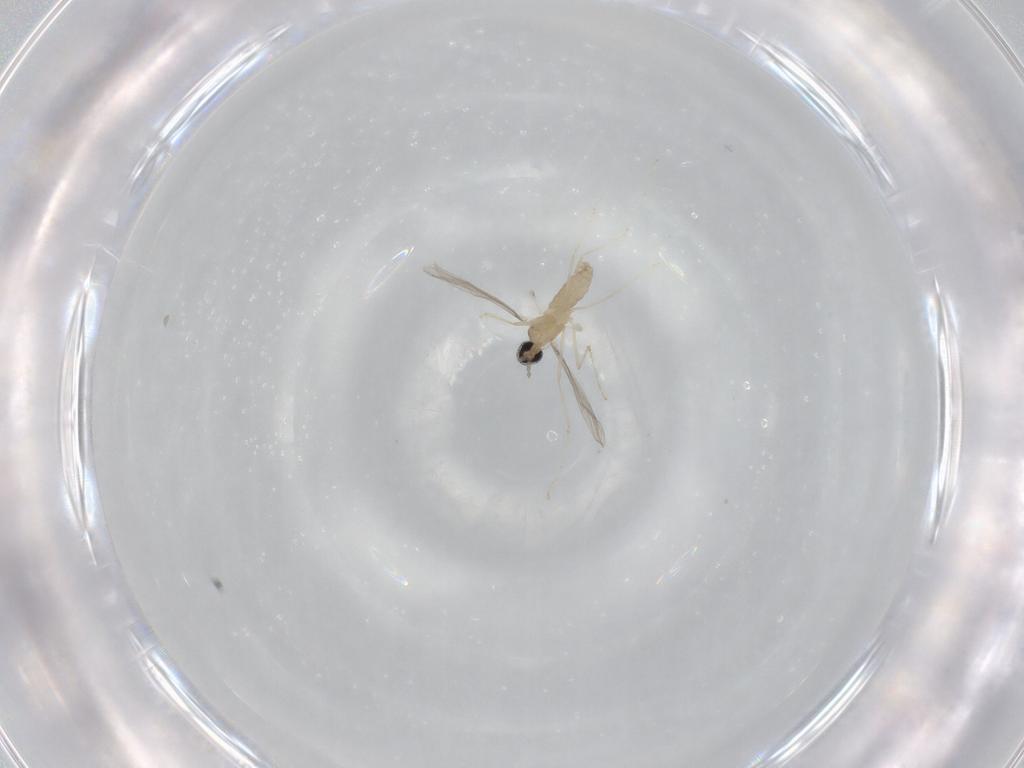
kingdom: Animalia
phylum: Arthropoda
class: Insecta
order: Diptera
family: Cecidomyiidae
